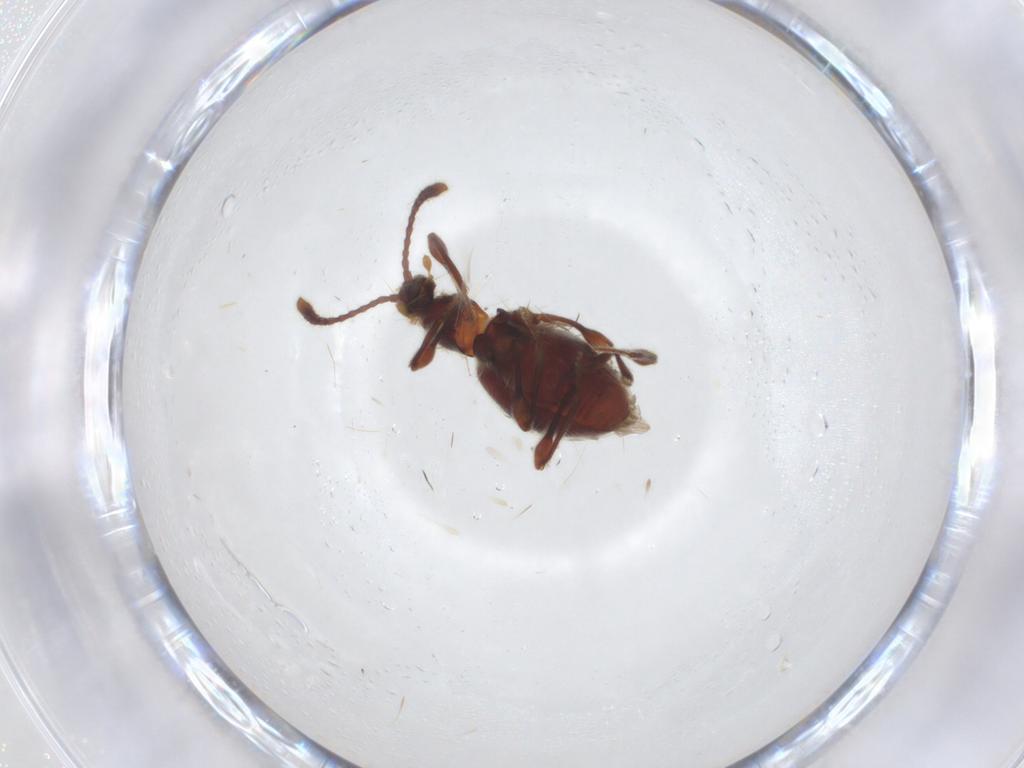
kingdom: Animalia
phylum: Arthropoda
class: Insecta
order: Coleoptera
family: Staphylinidae
